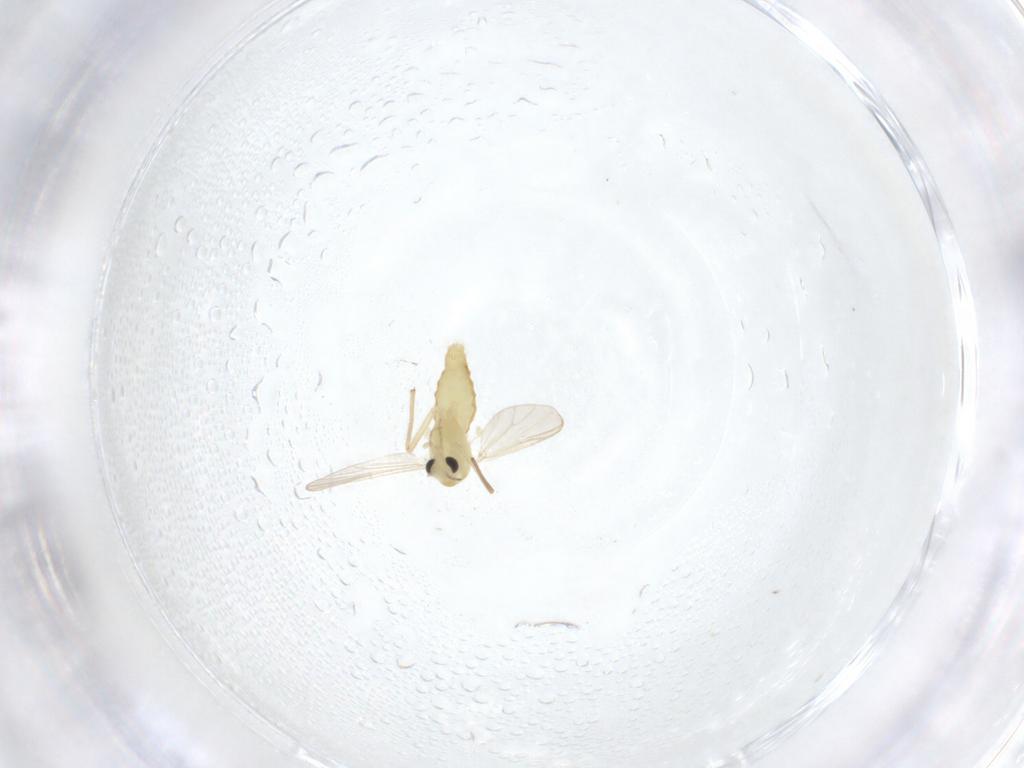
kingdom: Animalia
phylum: Arthropoda
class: Insecta
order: Diptera
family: Chironomidae
